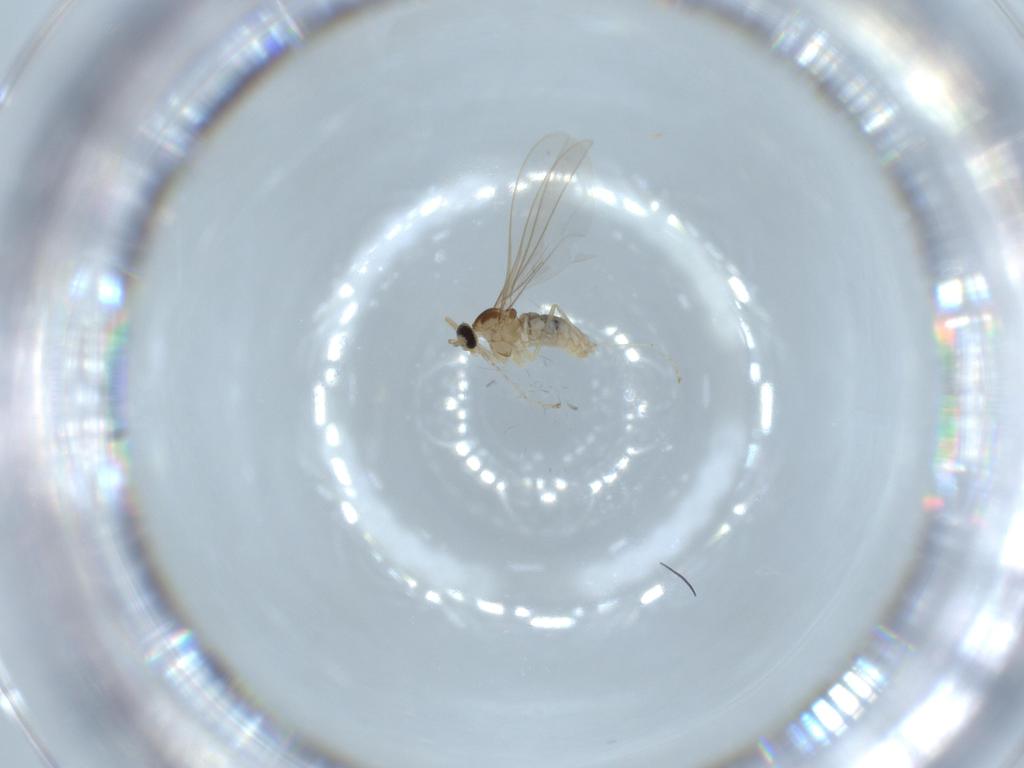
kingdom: Animalia
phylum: Arthropoda
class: Insecta
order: Diptera
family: Cecidomyiidae
